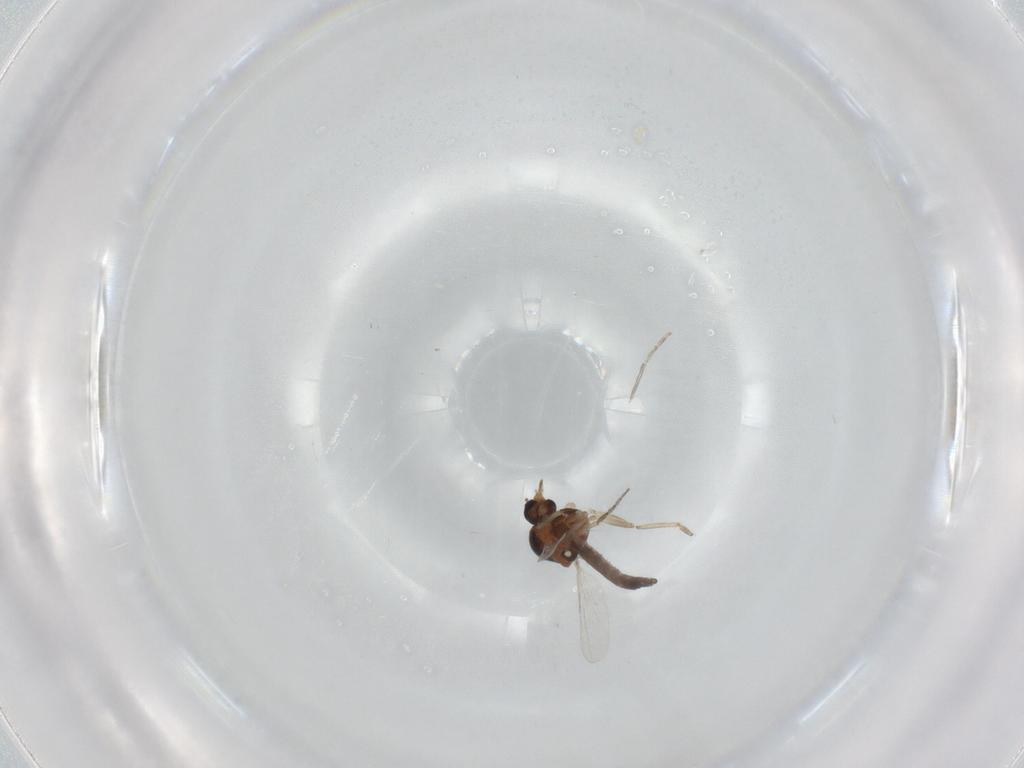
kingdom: Animalia
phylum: Arthropoda
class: Insecta
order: Diptera
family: Ceratopogonidae
